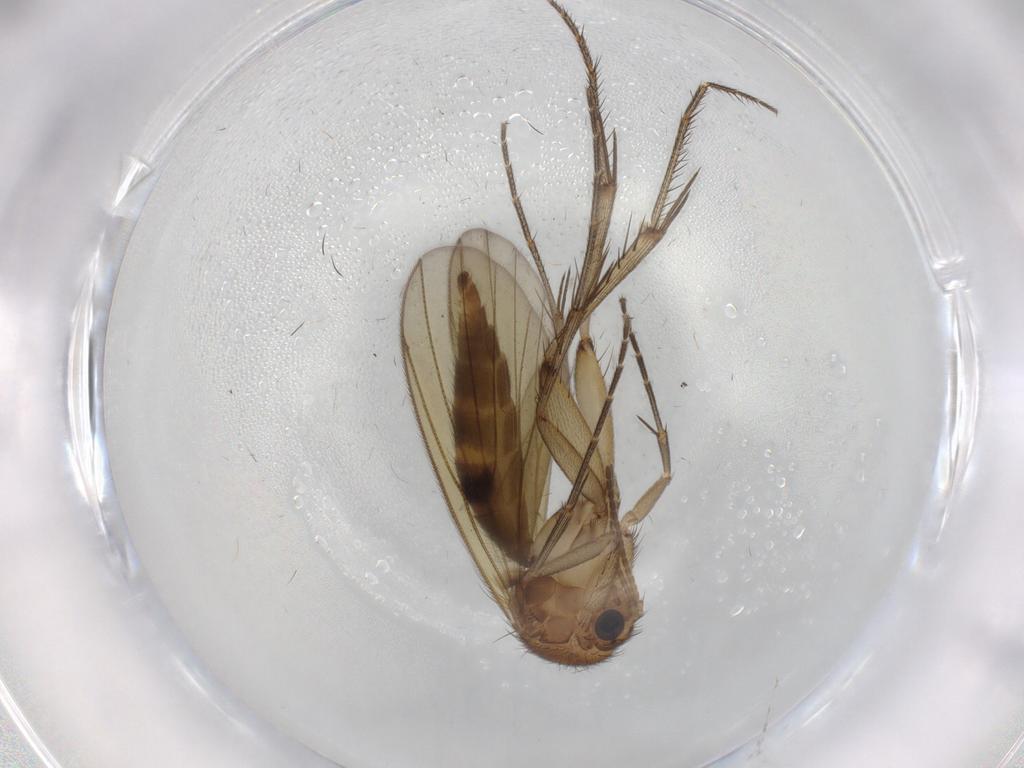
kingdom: Animalia
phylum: Arthropoda
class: Insecta
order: Diptera
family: Mycetophilidae
